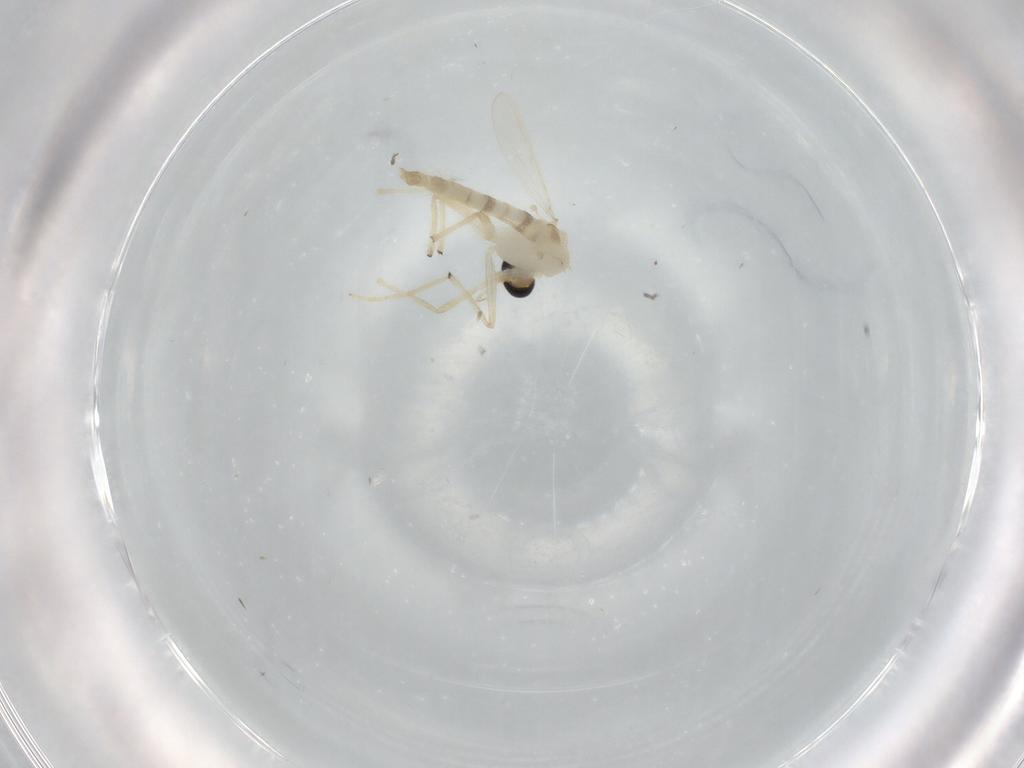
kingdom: Animalia
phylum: Arthropoda
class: Insecta
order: Diptera
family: Chironomidae
